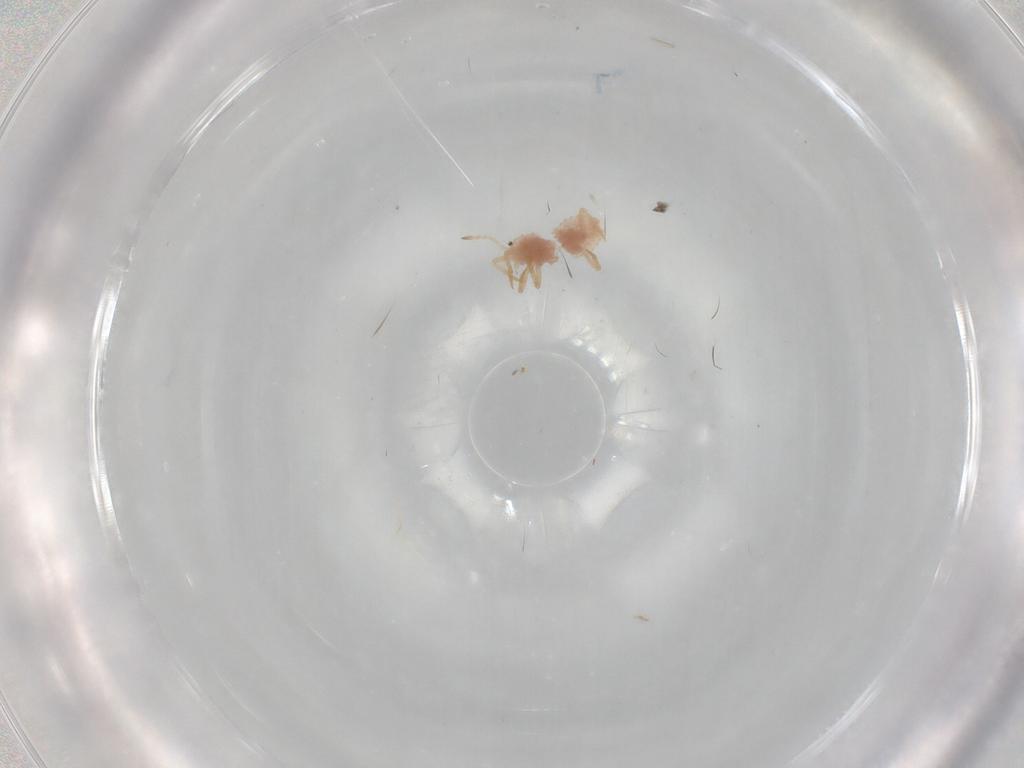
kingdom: Animalia
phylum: Arthropoda
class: Insecta
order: Hemiptera
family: Coccoidea_incertae_sedis
